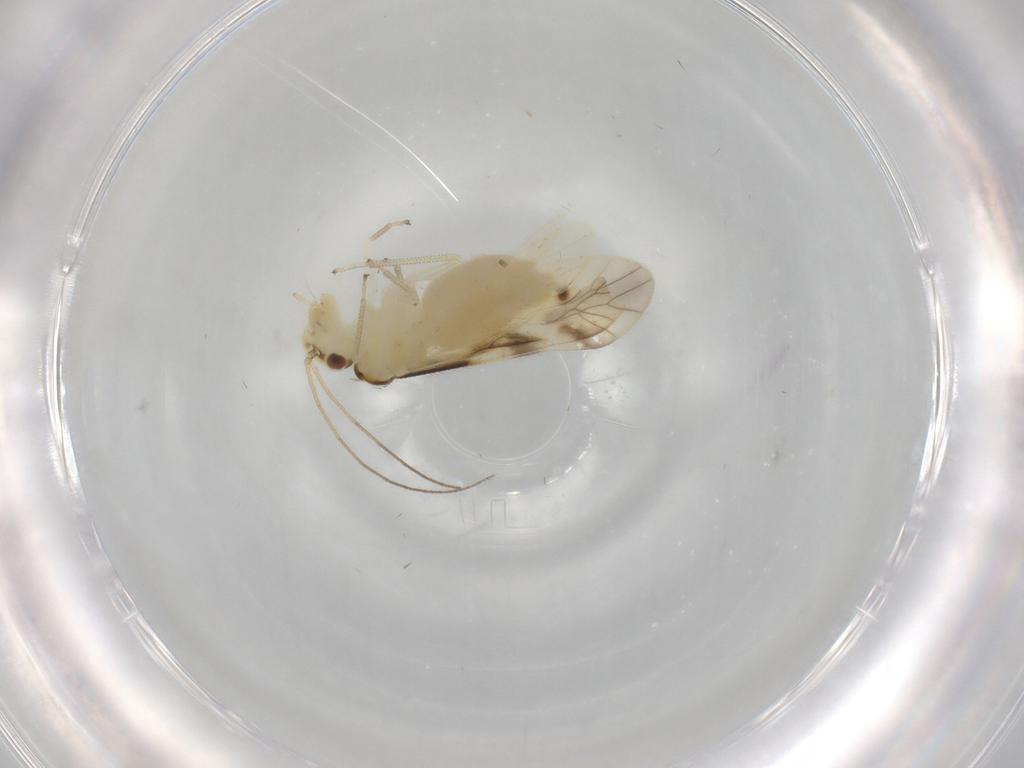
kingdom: Animalia
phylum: Arthropoda
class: Insecta
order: Psocodea
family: Caeciliusidae
